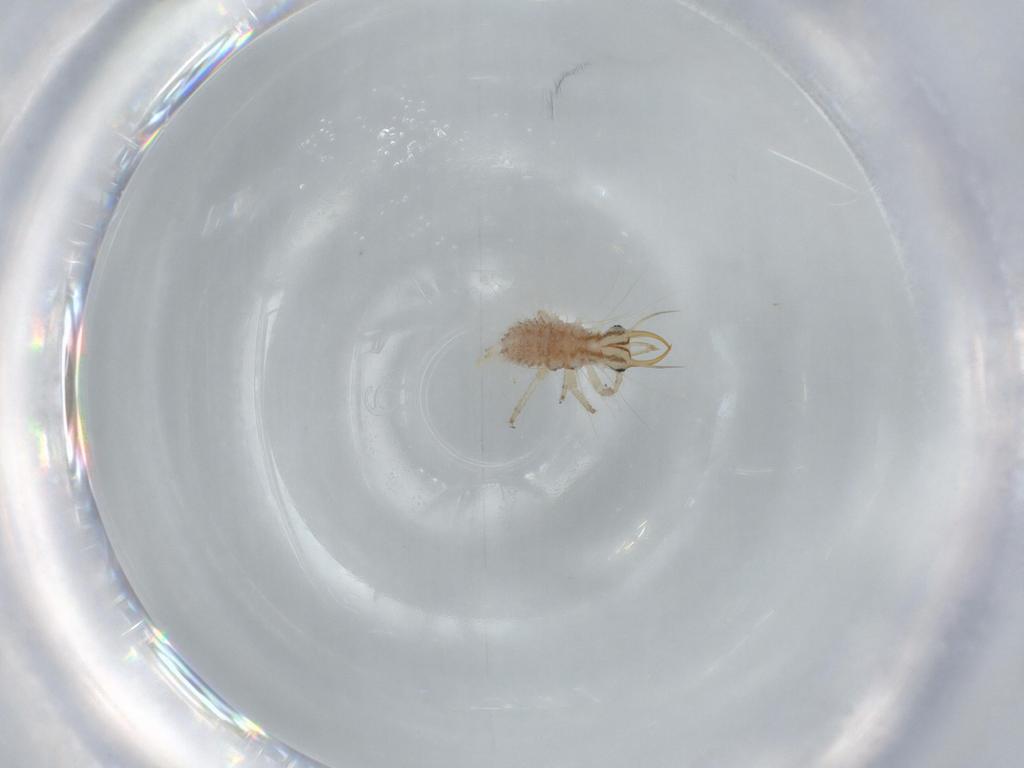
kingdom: Animalia
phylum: Arthropoda
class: Insecta
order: Neuroptera
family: Chrysopidae
